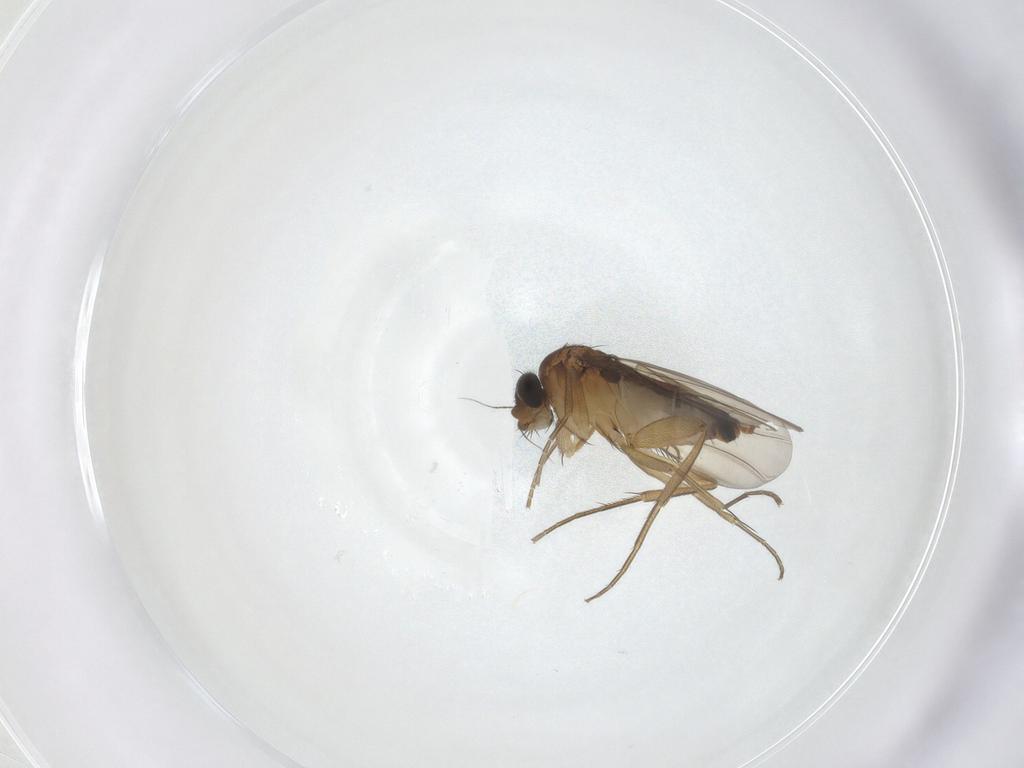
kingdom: Animalia
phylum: Arthropoda
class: Insecta
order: Diptera
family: Phoridae
